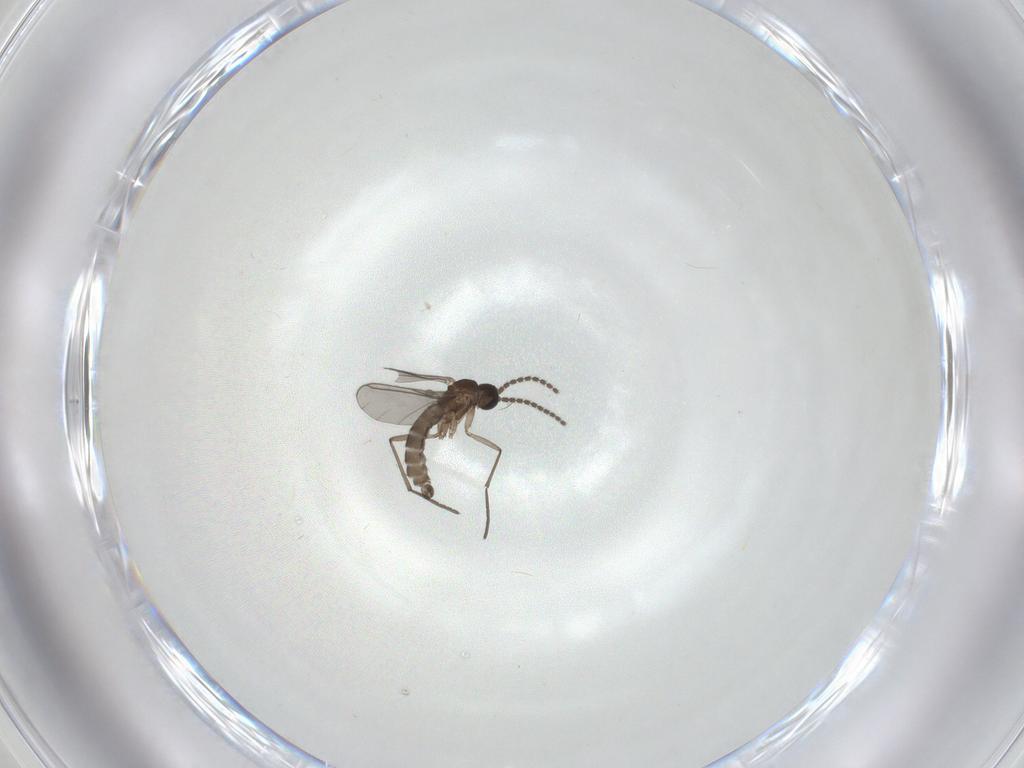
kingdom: Animalia
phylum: Arthropoda
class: Insecta
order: Diptera
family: Sciaridae
